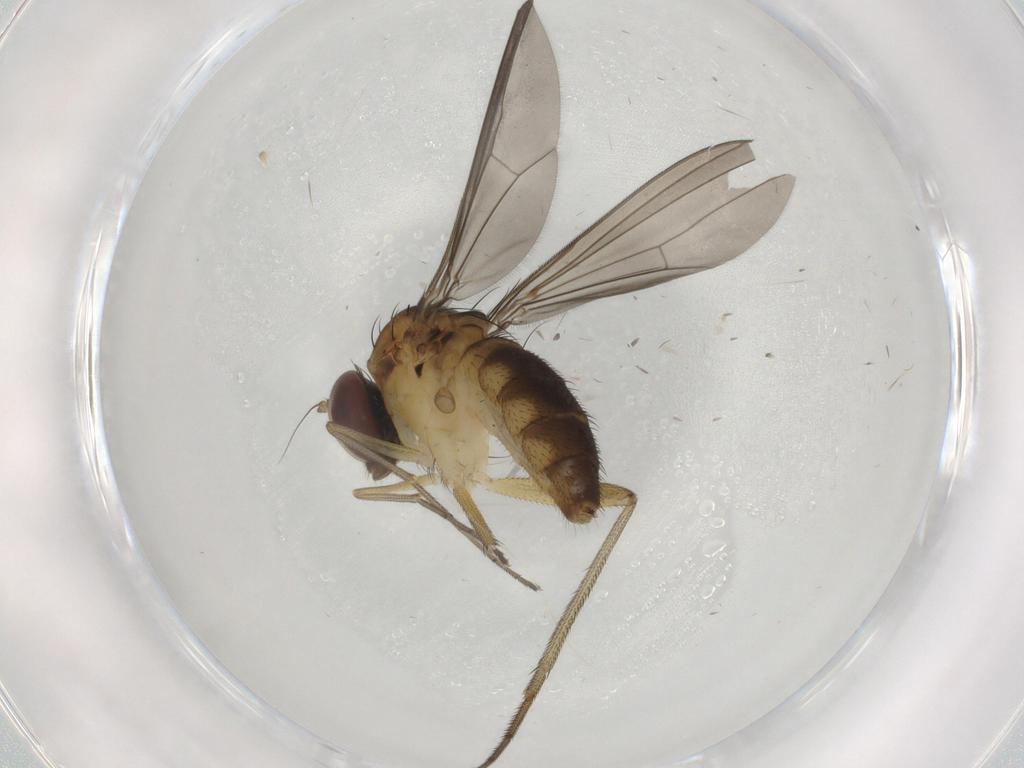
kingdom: Animalia
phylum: Arthropoda
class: Insecta
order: Diptera
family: Dolichopodidae
